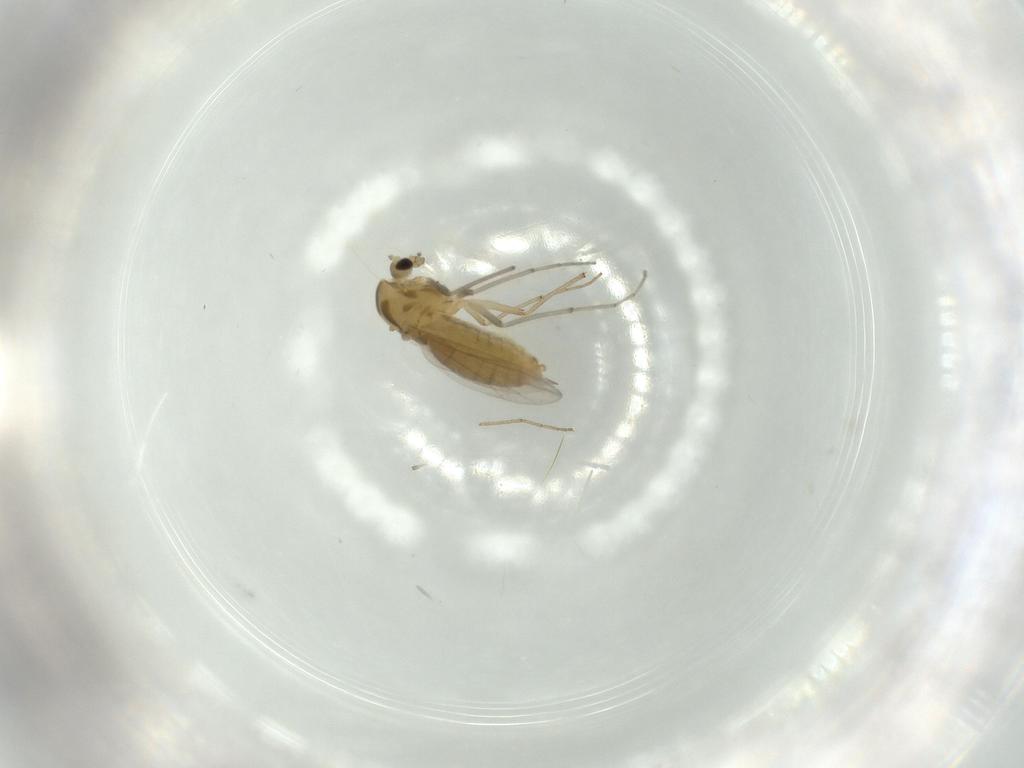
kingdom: Animalia
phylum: Arthropoda
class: Insecta
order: Diptera
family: Chironomidae
